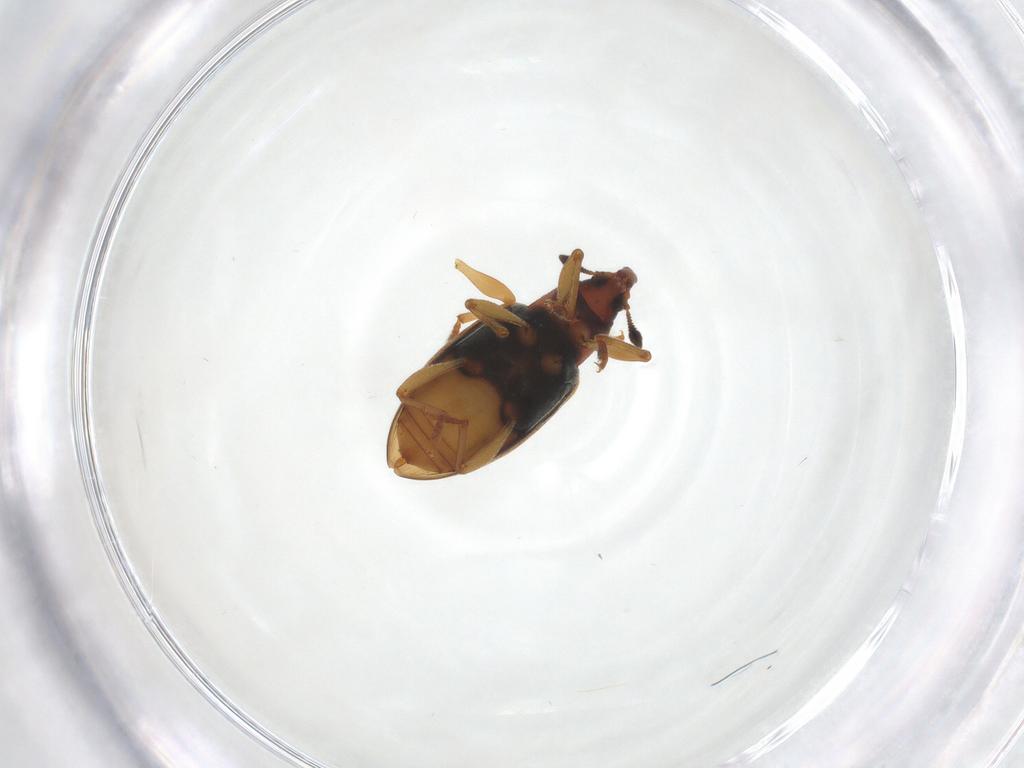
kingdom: Animalia
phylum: Arthropoda
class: Insecta
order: Coleoptera
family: Curculionidae
